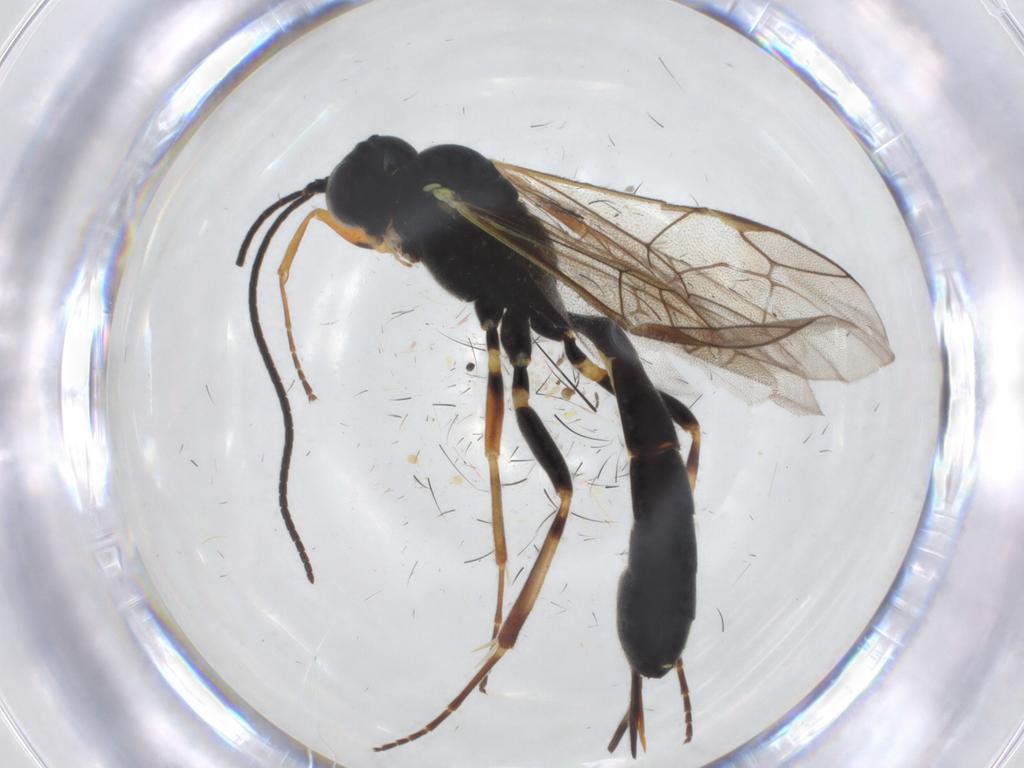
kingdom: Animalia
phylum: Arthropoda
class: Insecta
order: Hymenoptera
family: Ichneumonidae
